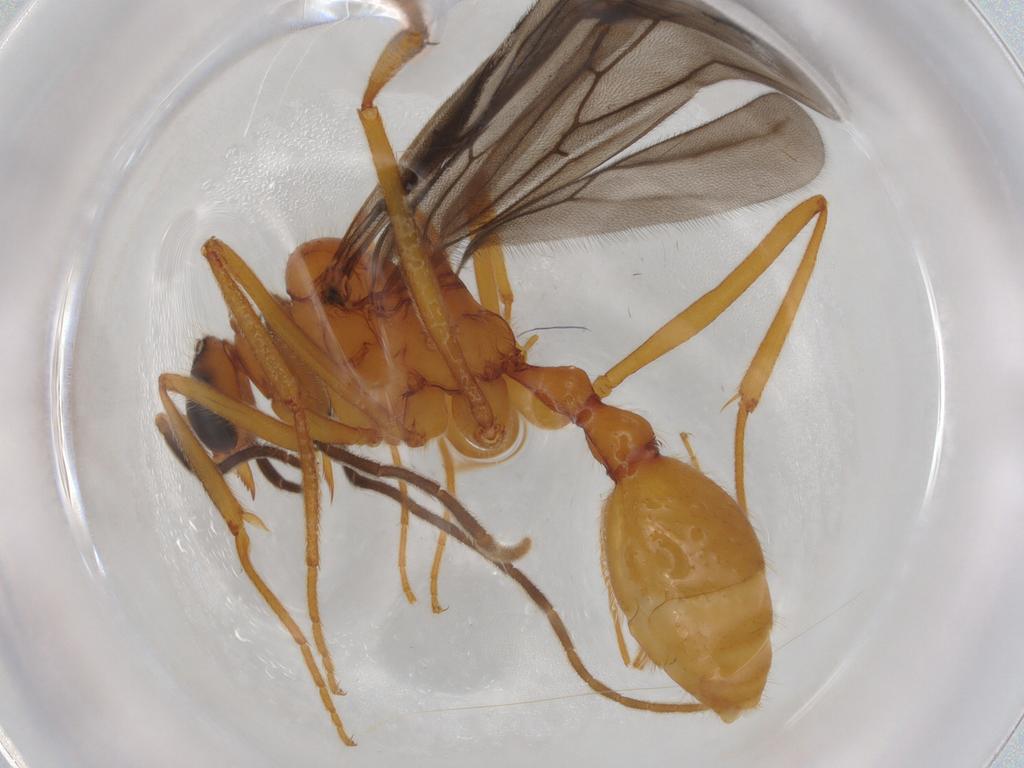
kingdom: Animalia
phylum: Arthropoda
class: Insecta
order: Hymenoptera
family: Formicidae
